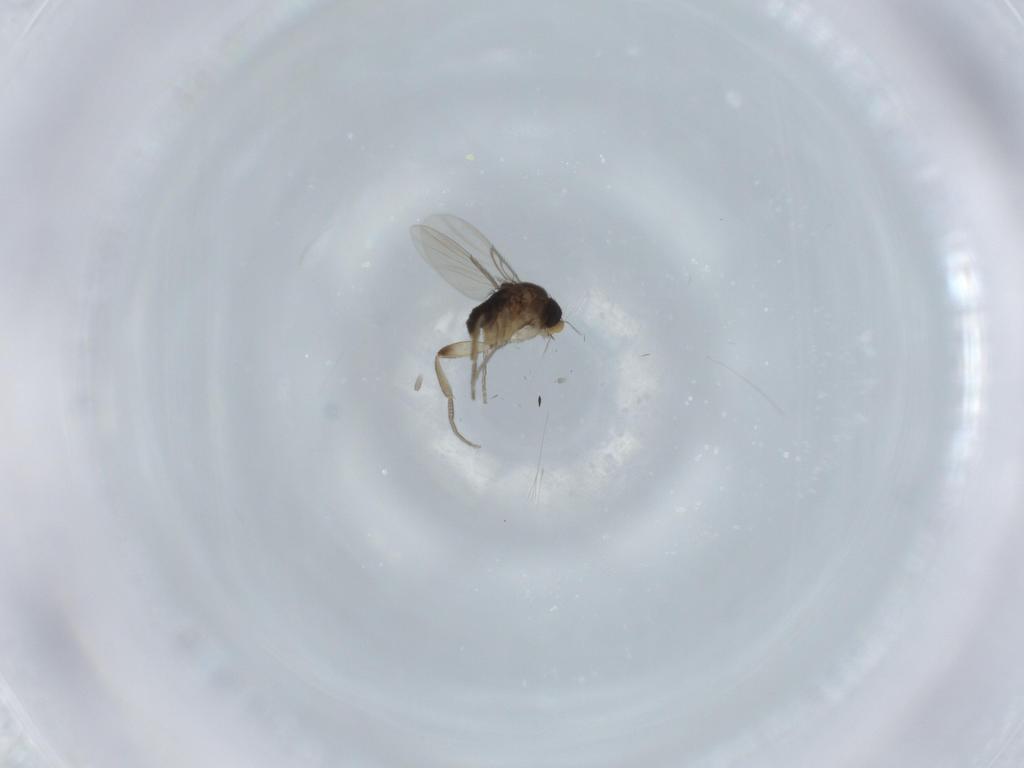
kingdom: Animalia
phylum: Arthropoda
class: Insecta
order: Diptera
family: Phoridae
